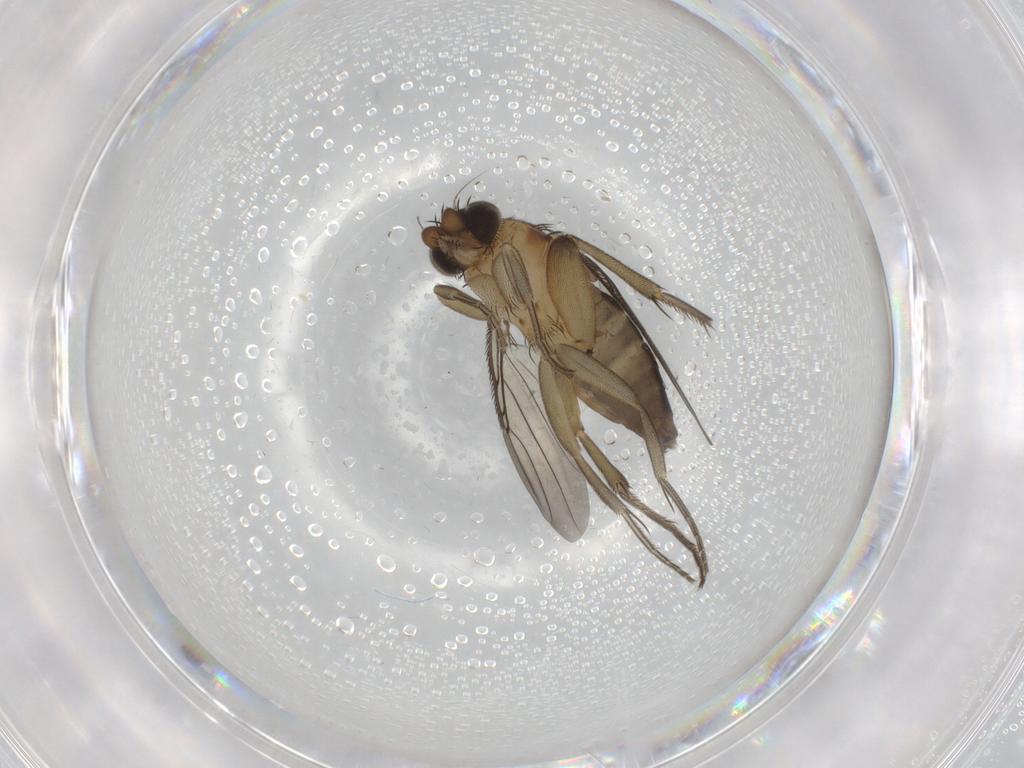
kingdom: Animalia
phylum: Arthropoda
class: Insecta
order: Diptera
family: Phoridae
